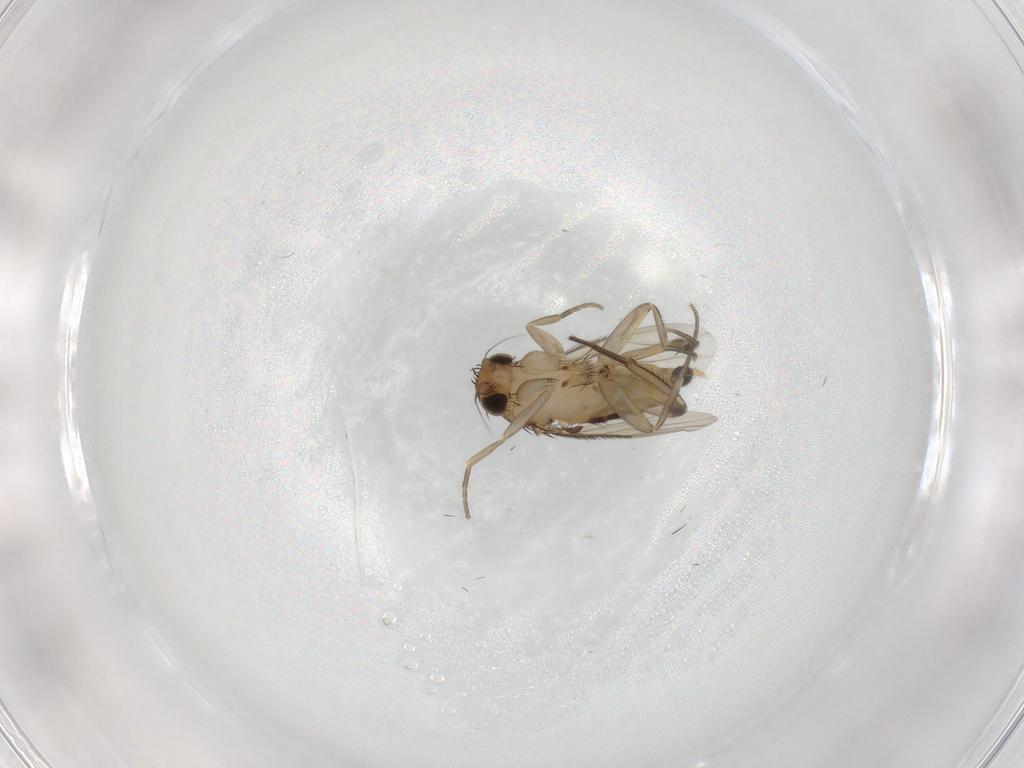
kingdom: Animalia
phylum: Arthropoda
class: Insecta
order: Diptera
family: Phoridae
